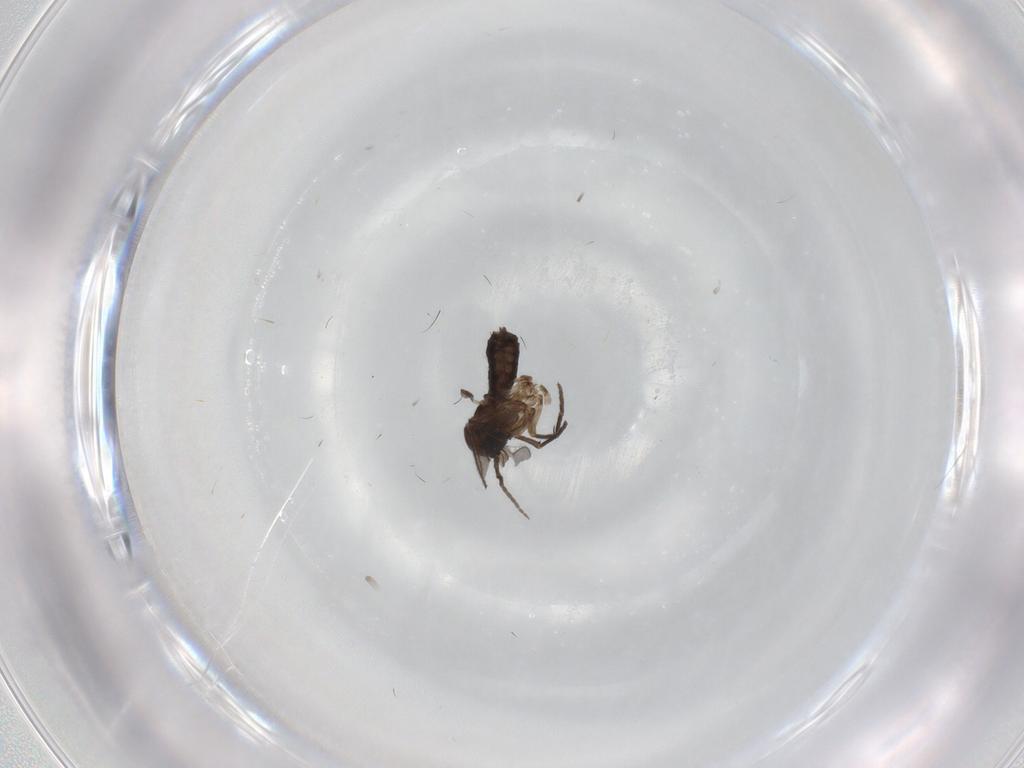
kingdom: Animalia
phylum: Arthropoda
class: Insecta
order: Diptera
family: Sciaridae
